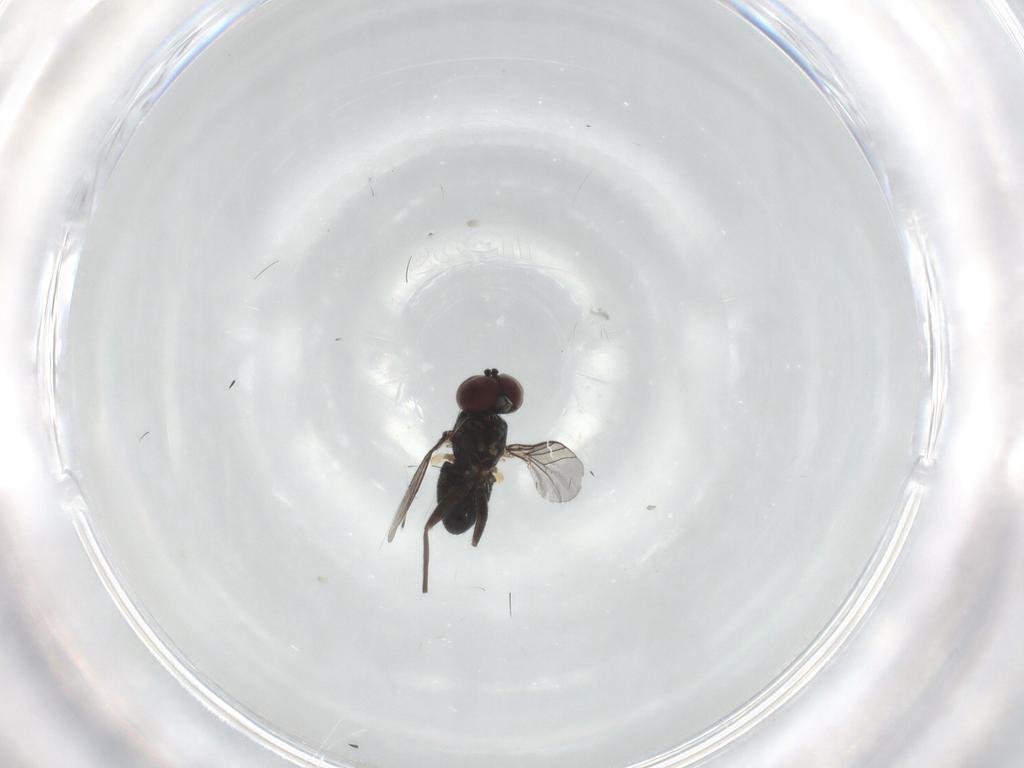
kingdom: Animalia
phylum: Arthropoda
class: Insecta
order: Diptera
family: Dolichopodidae
